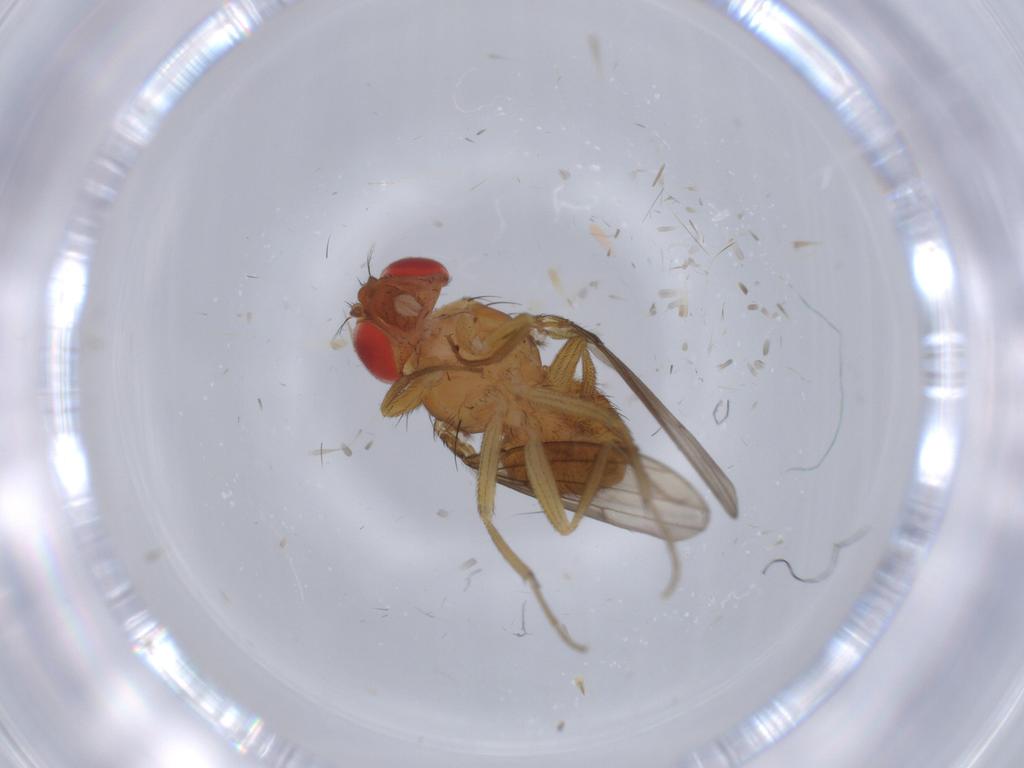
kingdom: Animalia
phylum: Arthropoda
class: Insecta
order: Diptera
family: Drosophilidae
